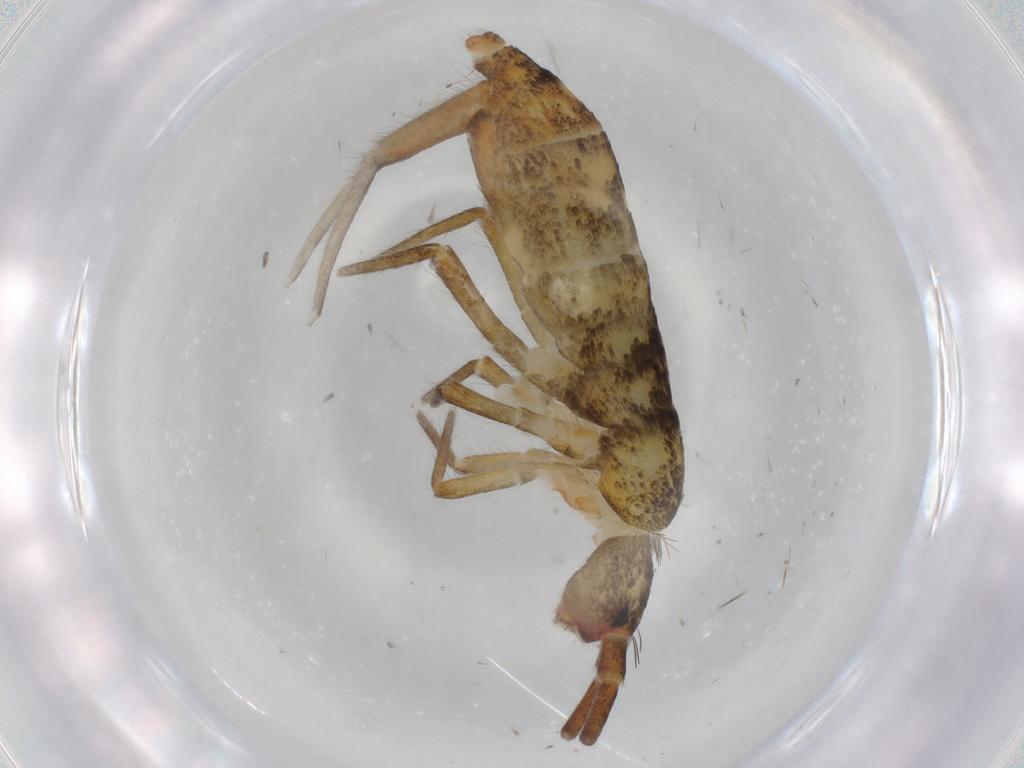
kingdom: Animalia
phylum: Arthropoda
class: Collembola
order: Entomobryomorpha
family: Tomoceridae
